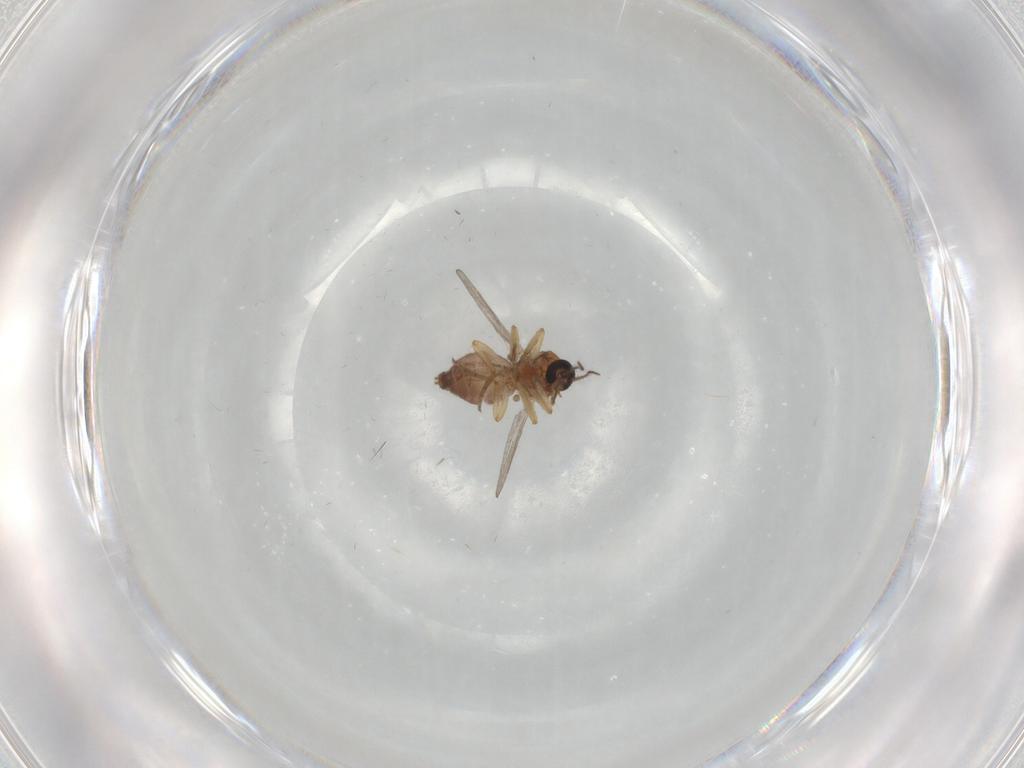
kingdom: Animalia
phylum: Arthropoda
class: Insecta
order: Diptera
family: Ceratopogonidae
